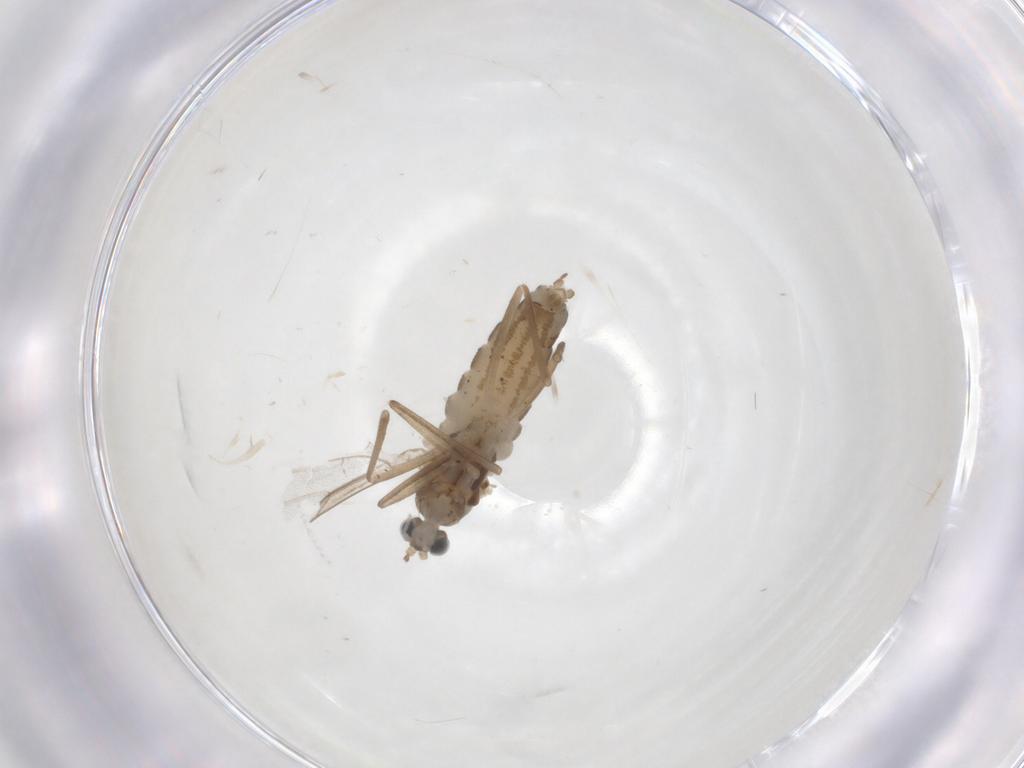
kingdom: Animalia
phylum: Arthropoda
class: Insecta
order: Diptera
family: Cecidomyiidae
